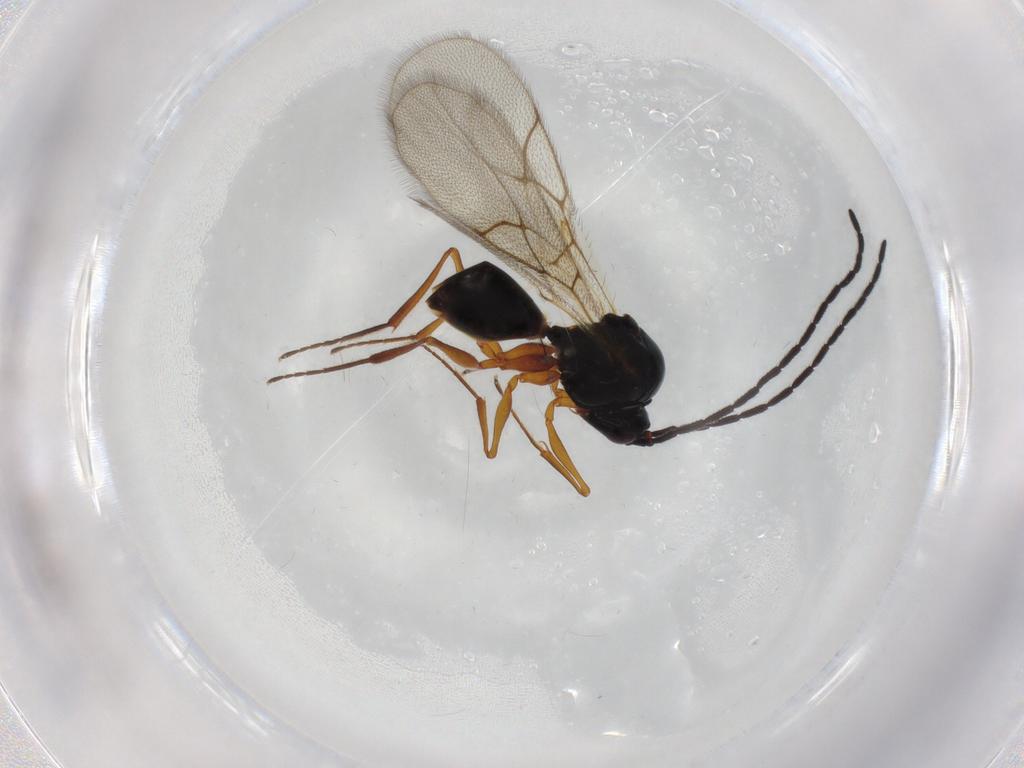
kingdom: Animalia
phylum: Arthropoda
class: Insecta
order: Hymenoptera
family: Figitidae
